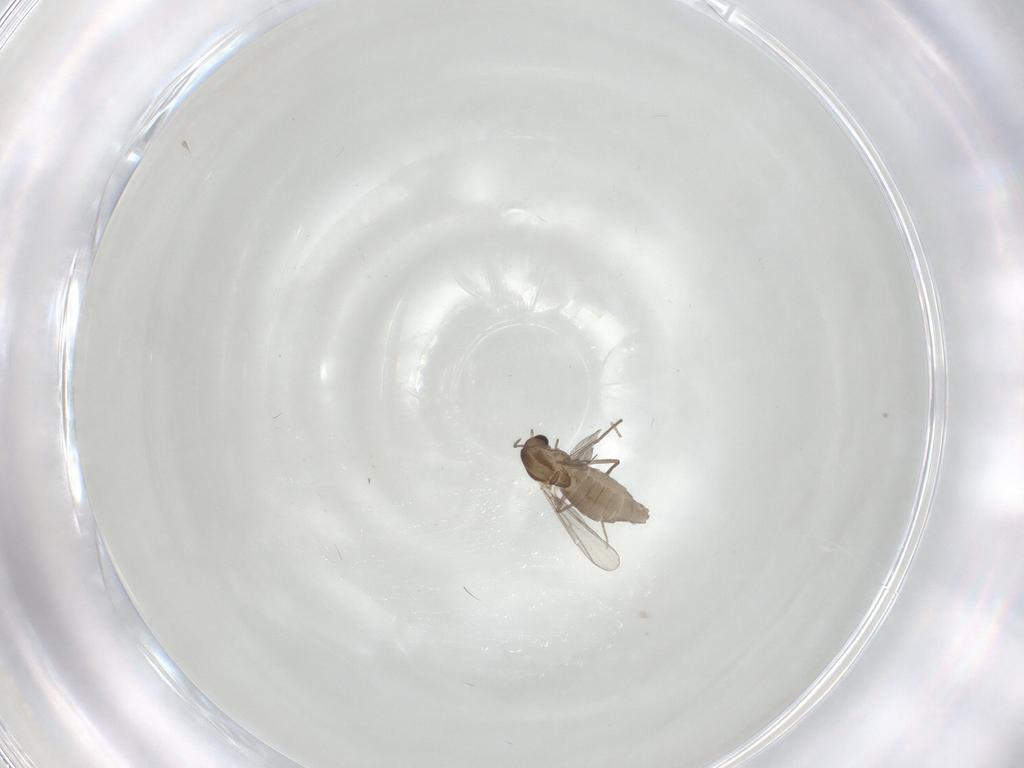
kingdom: Animalia
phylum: Arthropoda
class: Insecta
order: Diptera
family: Chironomidae
